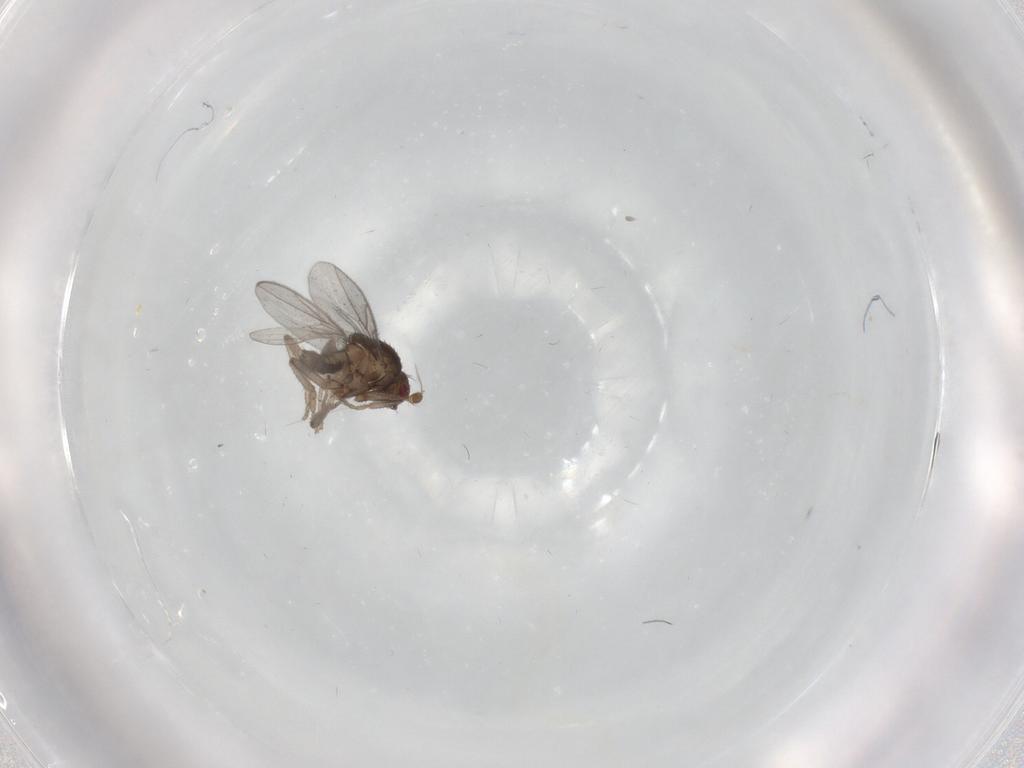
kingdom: Animalia
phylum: Arthropoda
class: Insecta
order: Diptera
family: Sphaeroceridae
